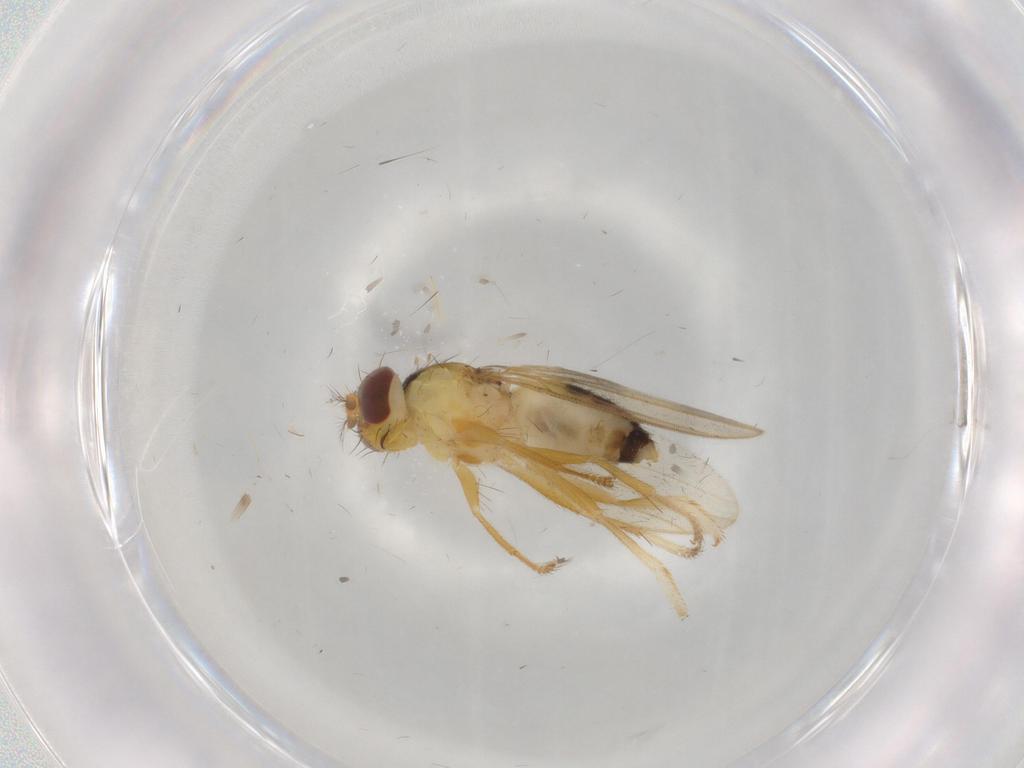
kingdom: Animalia
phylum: Arthropoda
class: Insecta
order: Diptera
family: Cecidomyiidae
